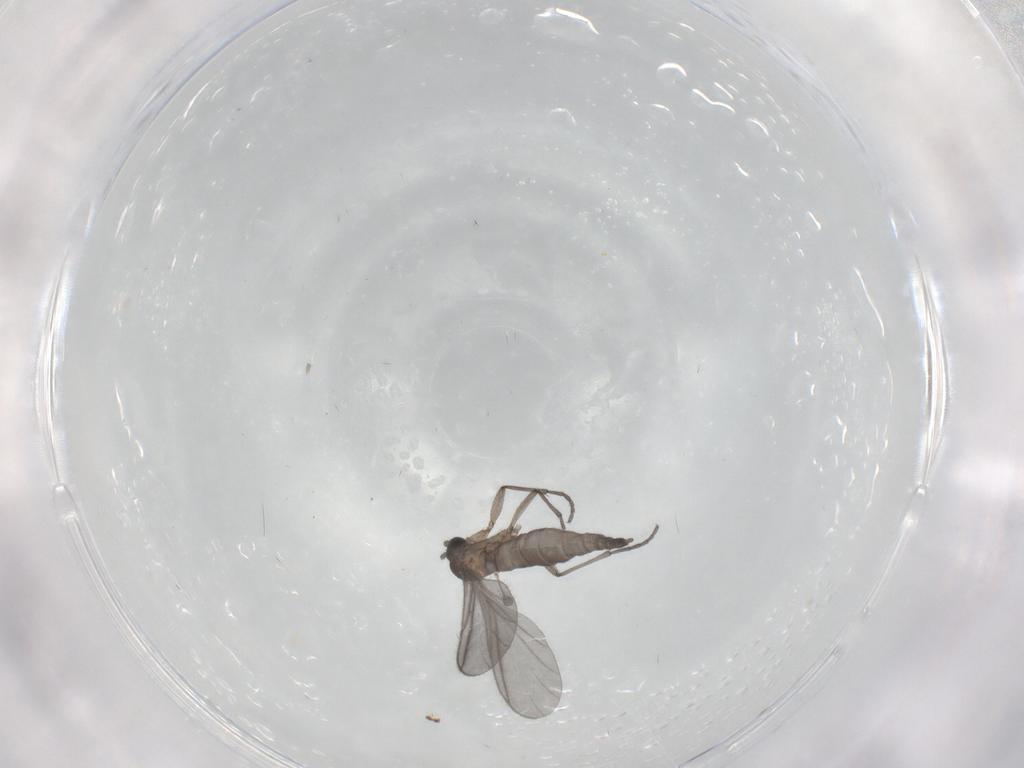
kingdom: Animalia
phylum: Arthropoda
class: Insecta
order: Diptera
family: Sciaridae
